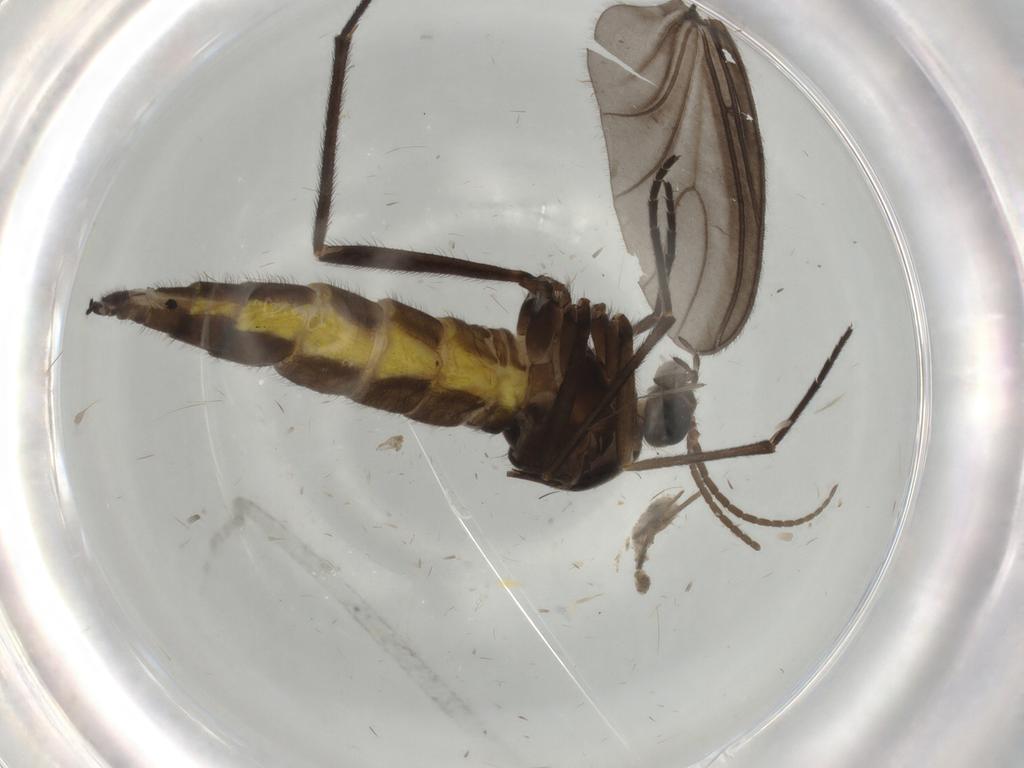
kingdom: Animalia
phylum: Arthropoda
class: Insecta
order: Diptera
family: Sciaridae
